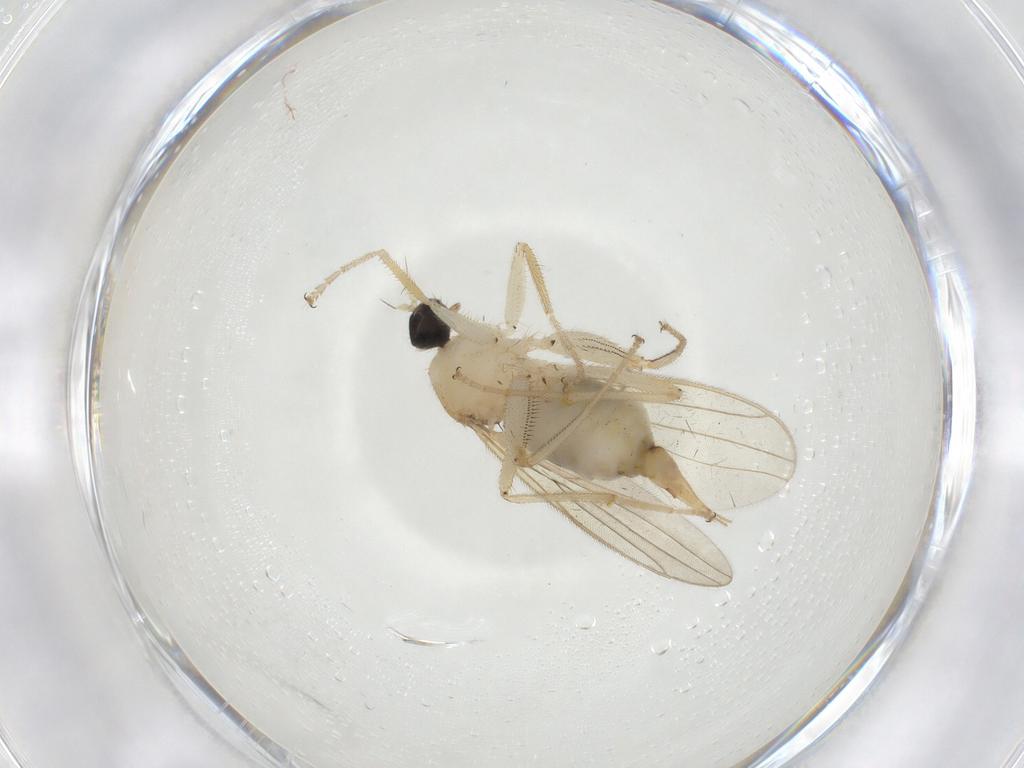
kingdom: Animalia
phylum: Arthropoda
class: Insecta
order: Diptera
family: Hybotidae
